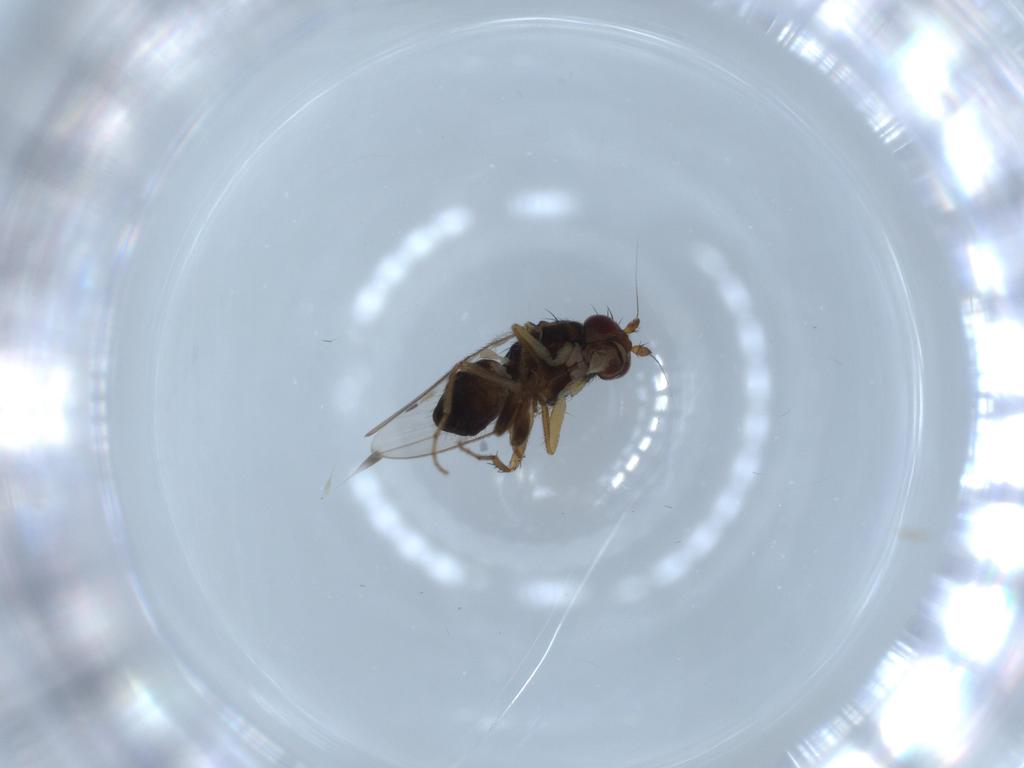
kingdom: Animalia
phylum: Arthropoda
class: Insecta
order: Diptera
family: Sphaeroceridae
